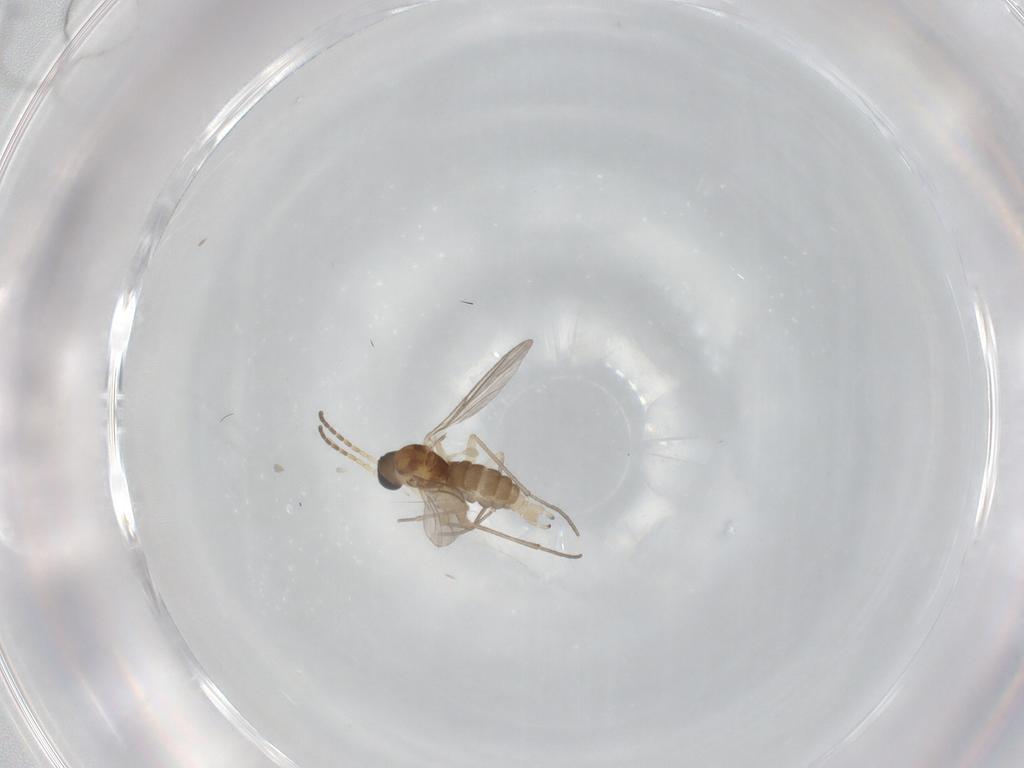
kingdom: Animalia
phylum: Arthropoda
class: Insecta
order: Diptera
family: Sciaridae
